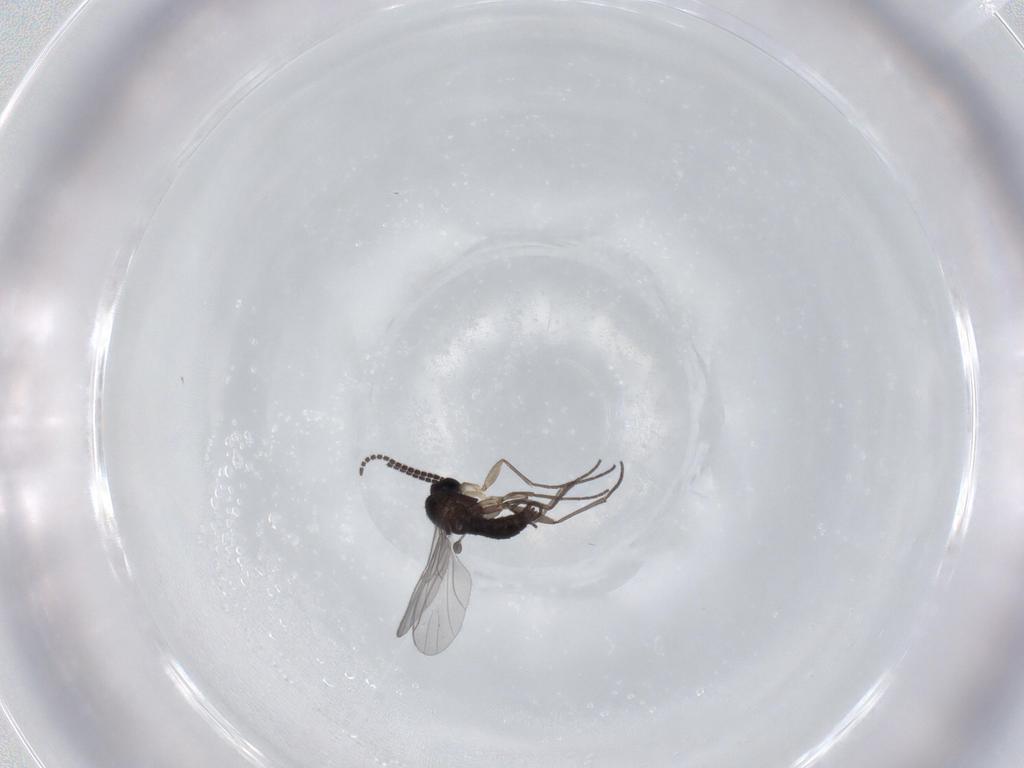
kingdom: Animalia
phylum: Arthropoda
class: Insecta
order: Diptera
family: Sciaridae
